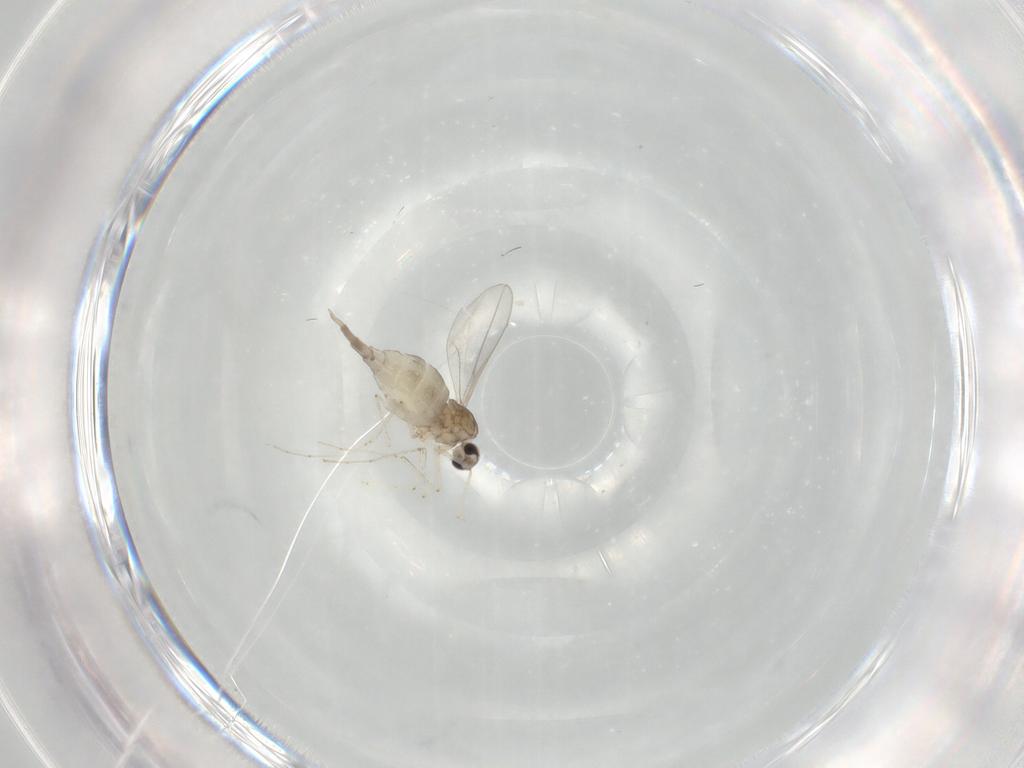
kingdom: Animalia
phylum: Arthropoda
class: Insecta
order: Diptera
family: Cecidomyiidae
